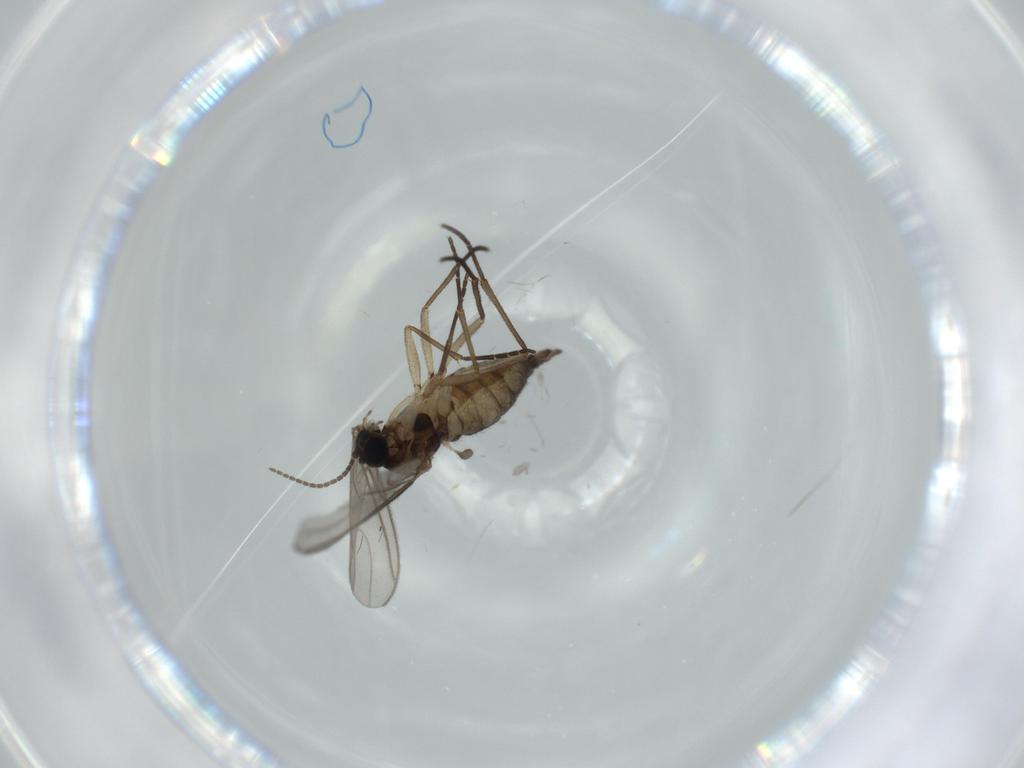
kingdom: Animalia
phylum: Arthropoda
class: Insecta
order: Diptera
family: Sciaridae
